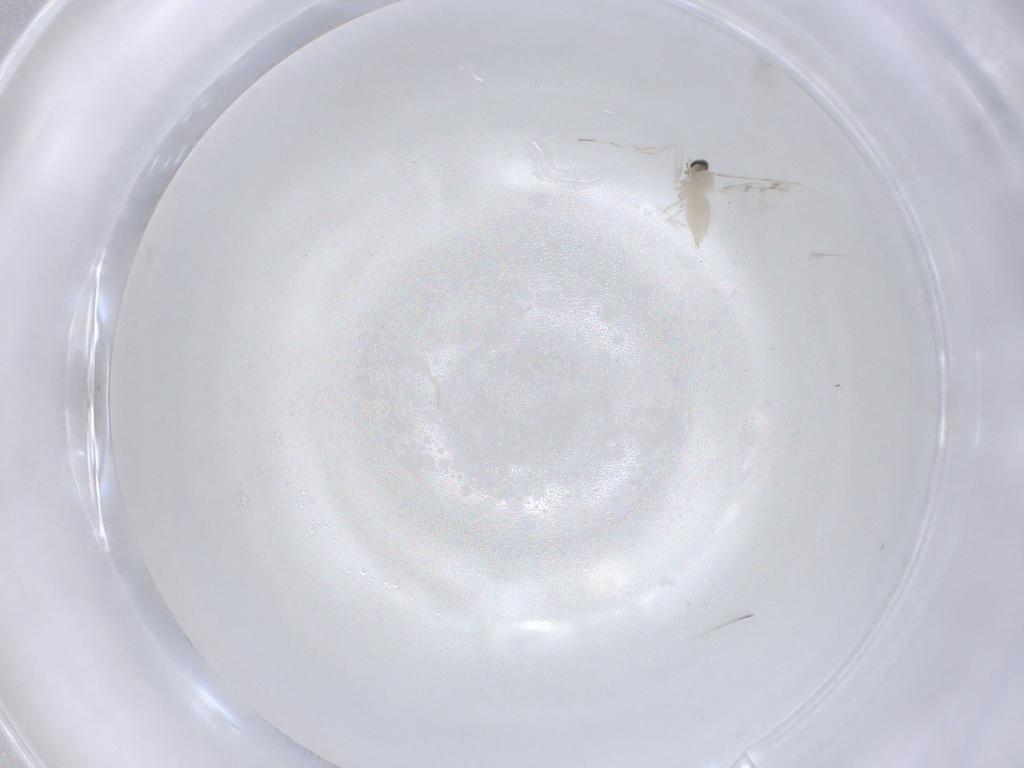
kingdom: Animalia
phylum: Arthropoda
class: Insecta
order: Diptera
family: Cecidomyiidae
